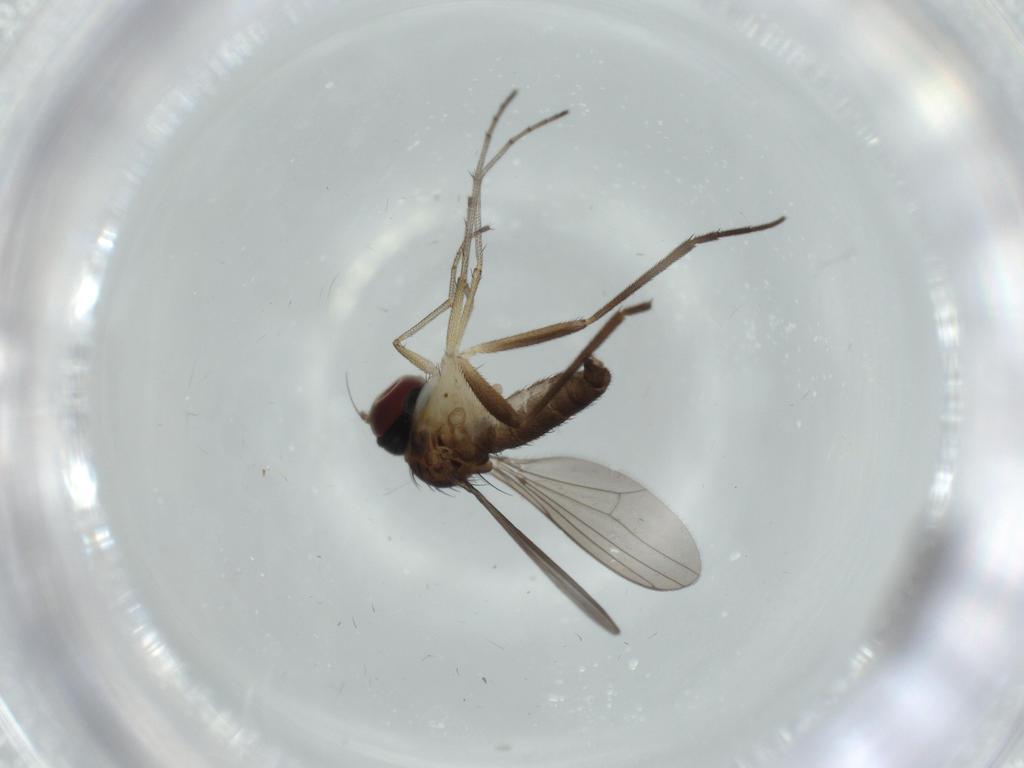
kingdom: Animalia
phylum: Arthropoda
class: Insecta
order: Diptera
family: Dolichopodidae
